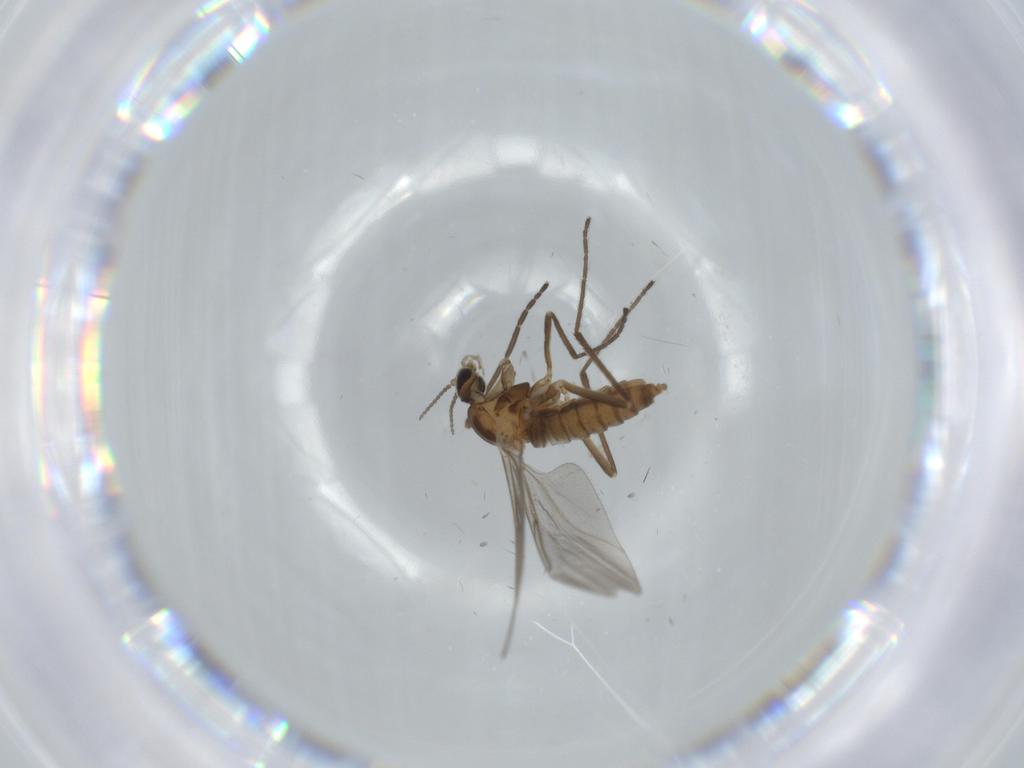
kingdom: Animalia
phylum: Arthropoda
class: Insecta
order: Diptera
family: Cecidomyiidae
